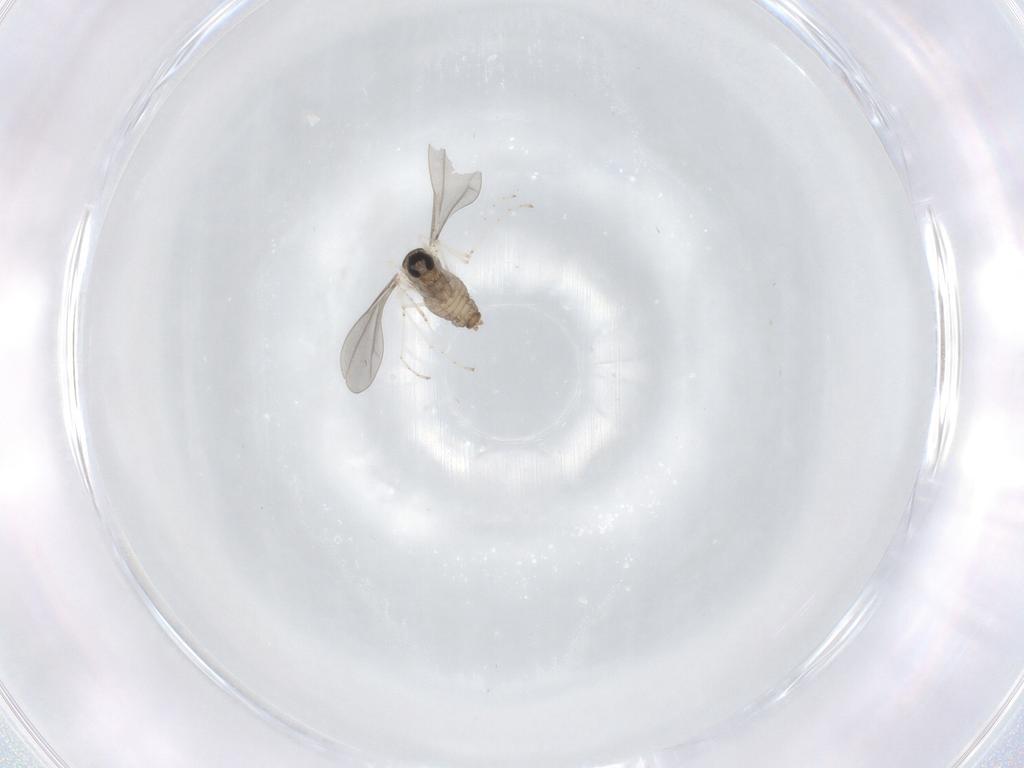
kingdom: Animalia
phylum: Arthropoda
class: Insecta
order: Diptera
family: Cecidomyiidae
